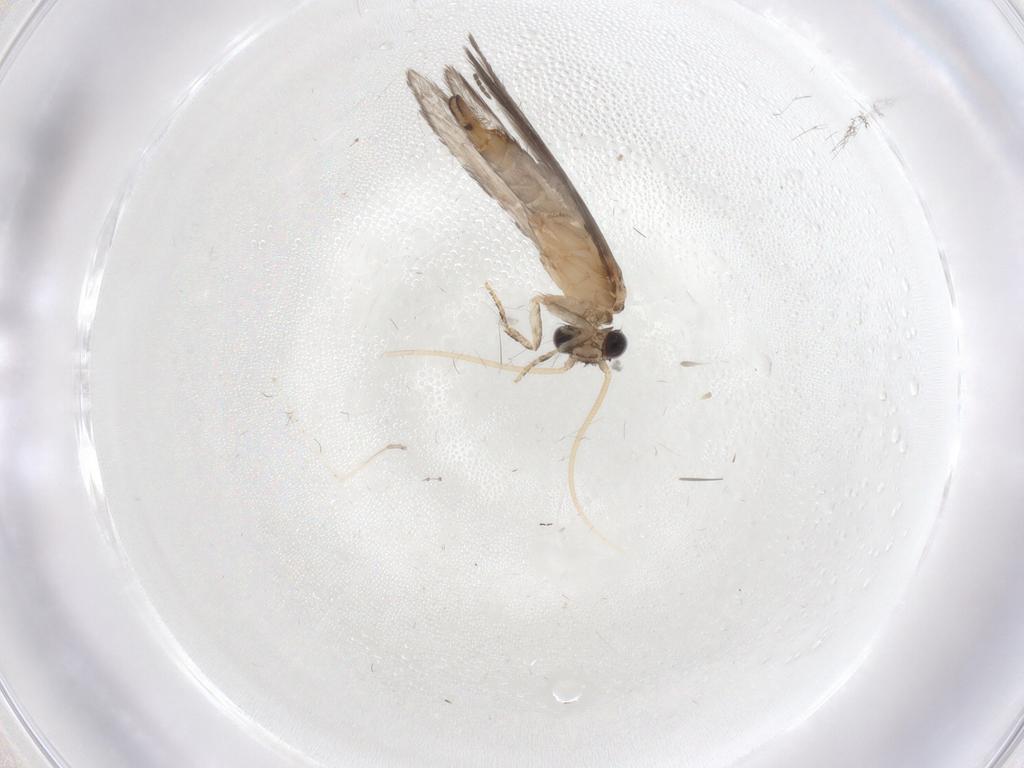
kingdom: Animalia
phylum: Arthropoda
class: Insecta
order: Trichoptera
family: Hydroptilidae
